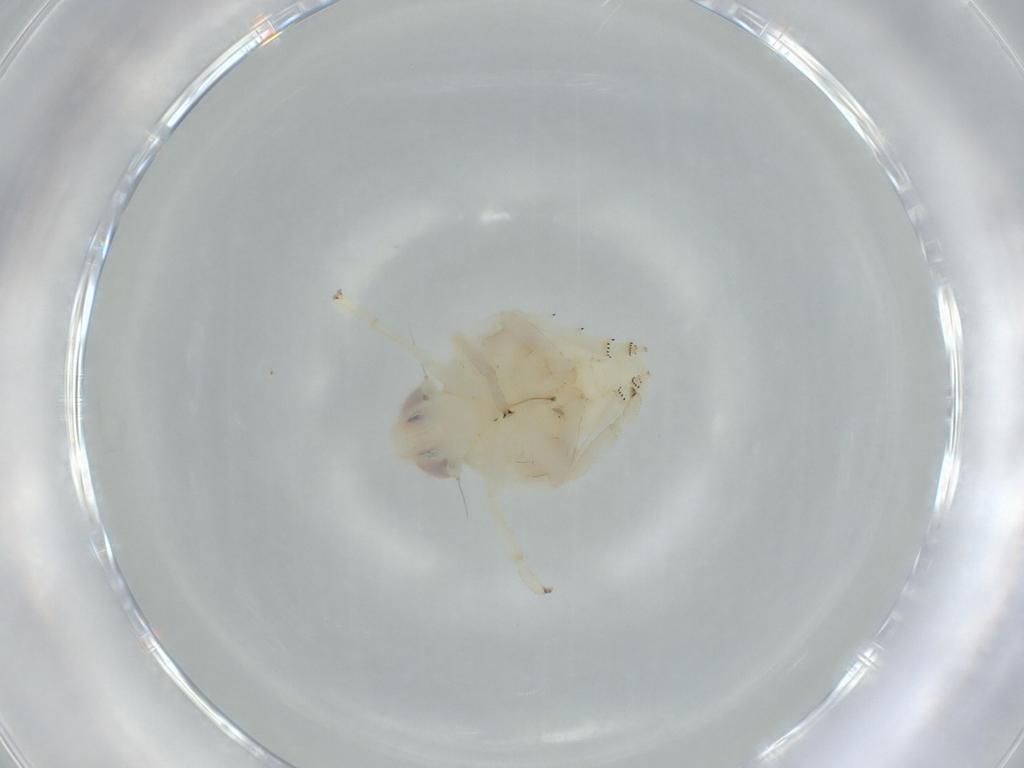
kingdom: Animalia
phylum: Arthropoda
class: Insecta
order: Hemiptera
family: Nogodinidae
